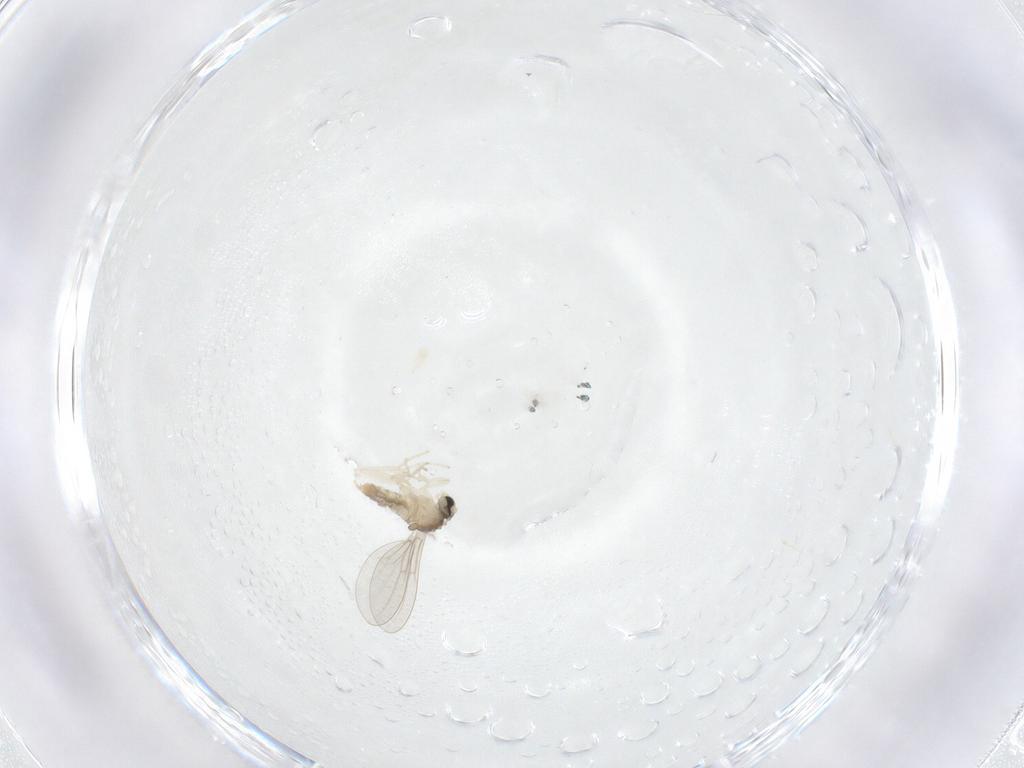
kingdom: Animalia
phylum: Arthropoda
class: Insecta
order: Diptera
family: Cecidomyiidae
